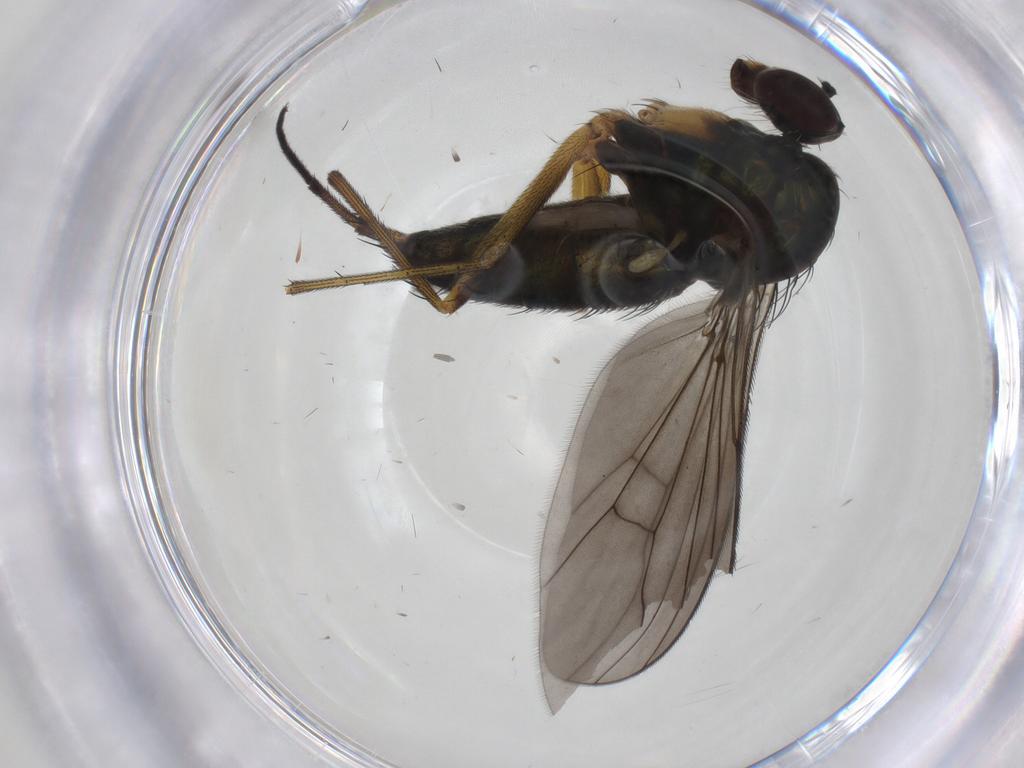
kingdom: Animalia
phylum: Arthropoda
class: Insecta
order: Diptera
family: Dolichopodidae
